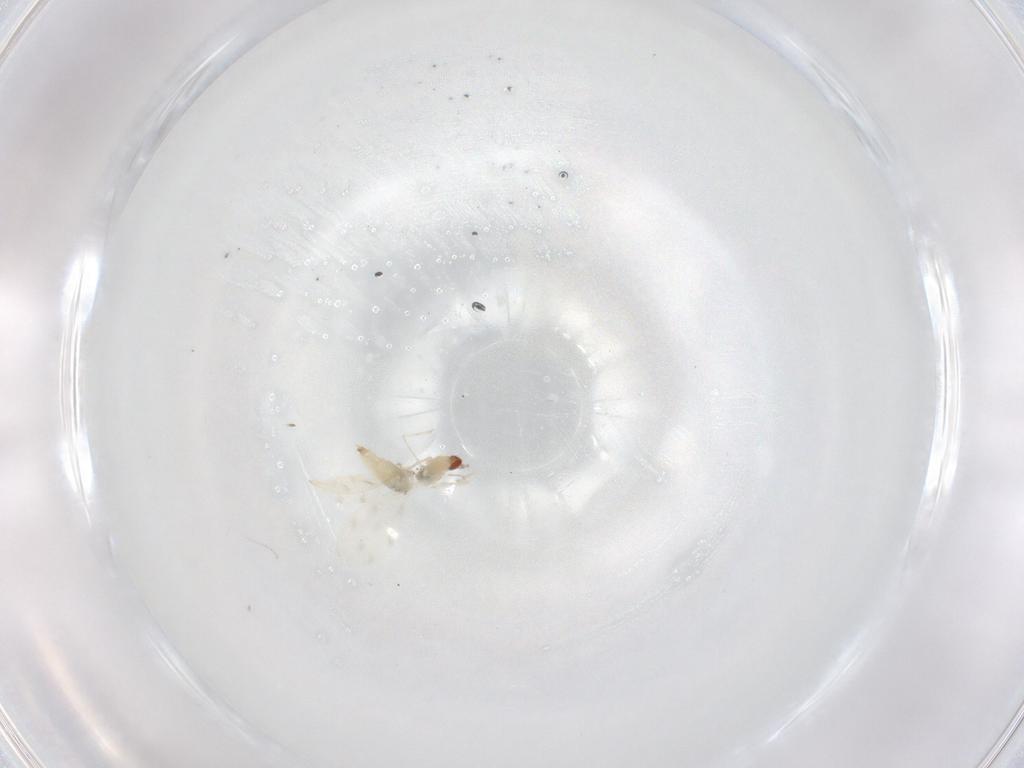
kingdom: Animalia
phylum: Arthropoda
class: Insecta
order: Diptera
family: Cecidomyiidae
